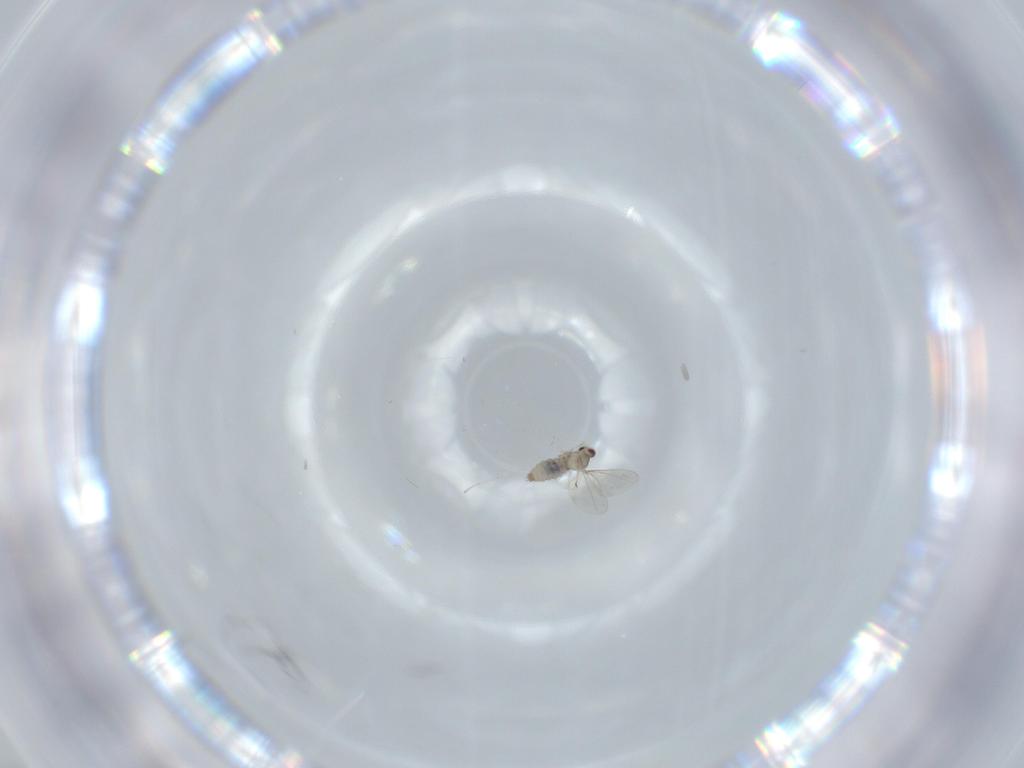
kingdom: Animalia
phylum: Arthropoda
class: Insecta
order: Diptera
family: Cecidomyiidae
